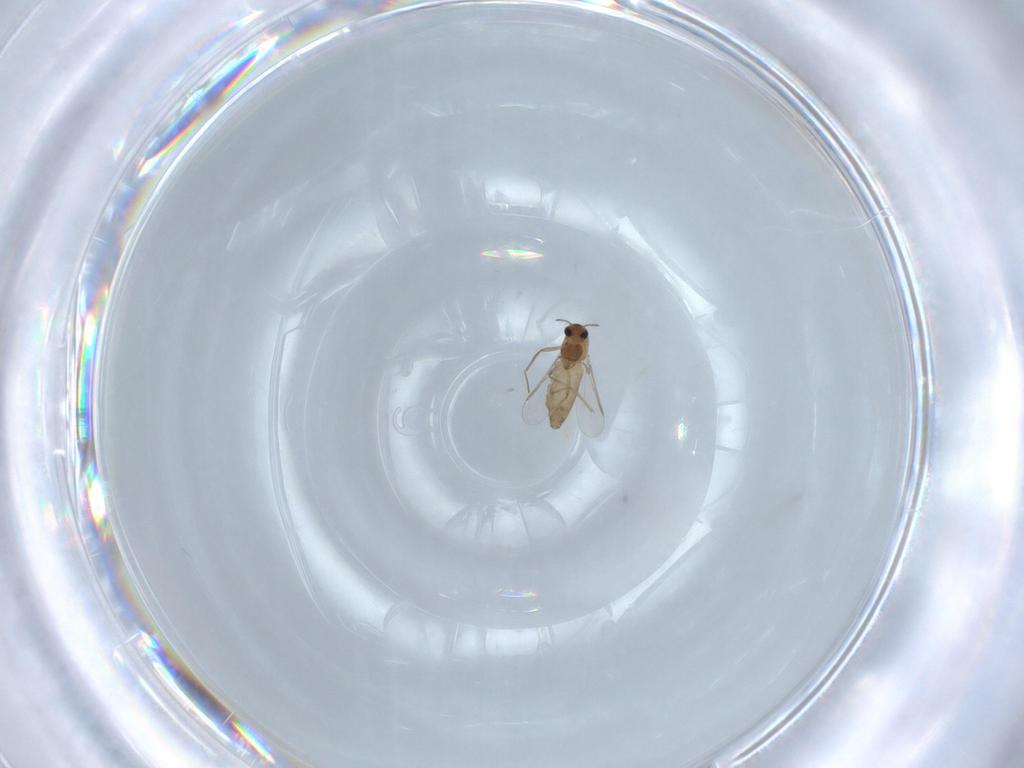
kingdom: Animalia
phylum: Arthropoda
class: Insecta
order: Diptera
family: Chironomidae
